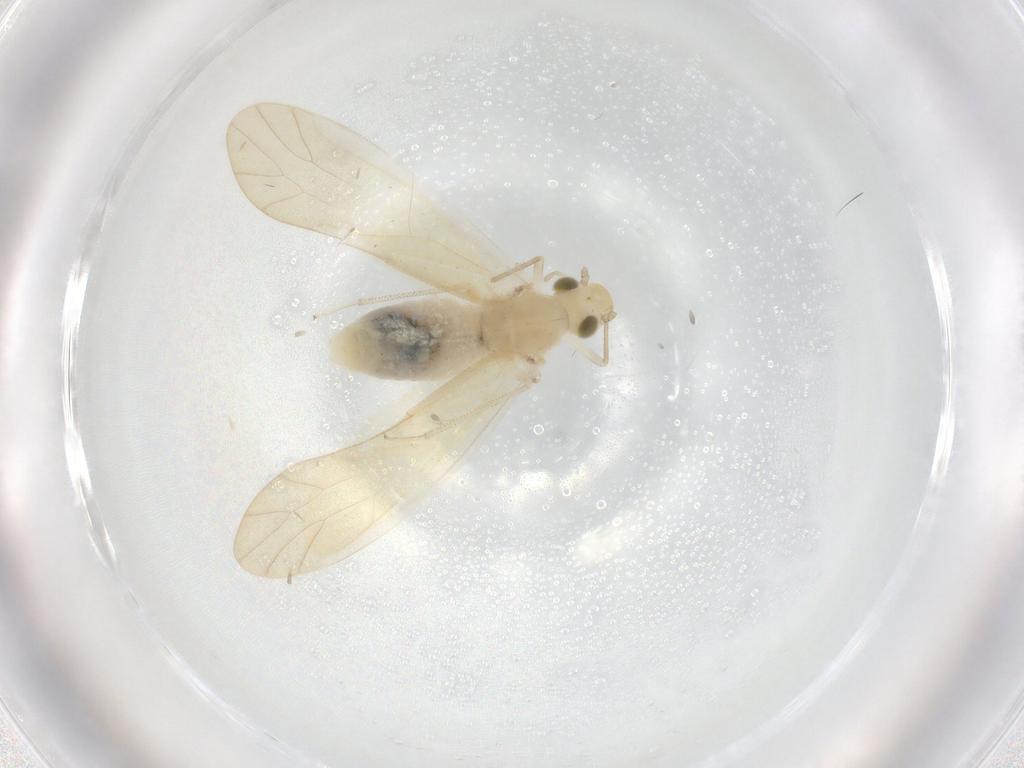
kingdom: Animalia
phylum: Arthropoda
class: Insecta
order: Psocodea
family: Caeciliusidae
